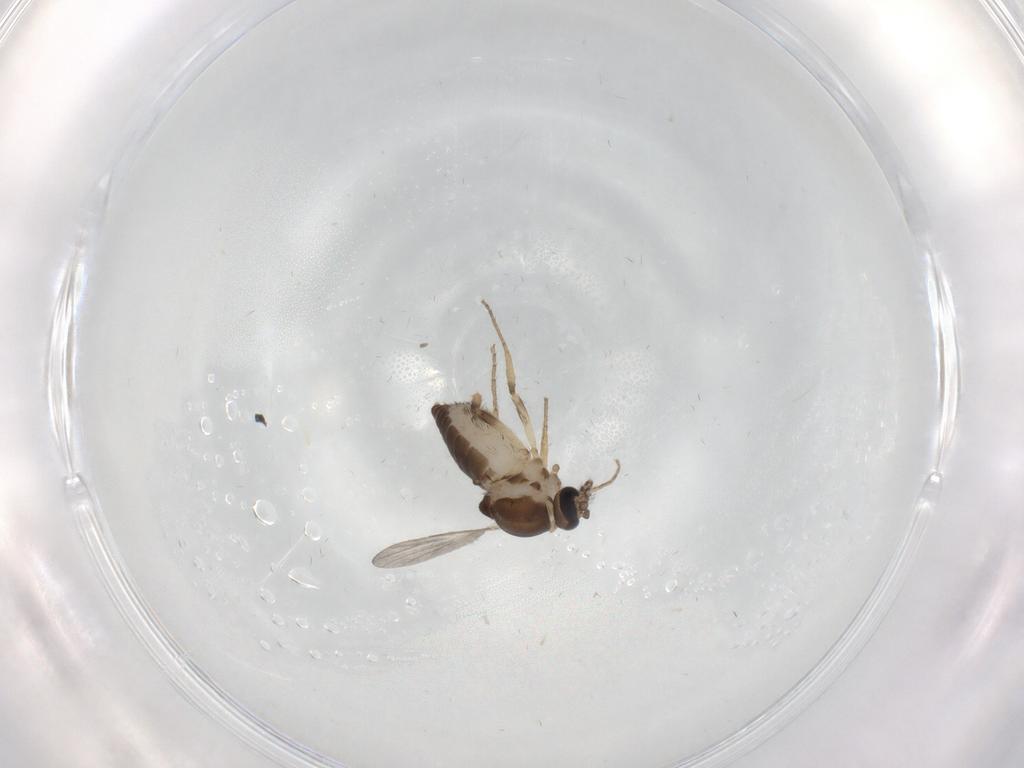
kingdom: Animalia
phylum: Arthropoda
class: Insecta
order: Diptera
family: Ceratopogonidae
